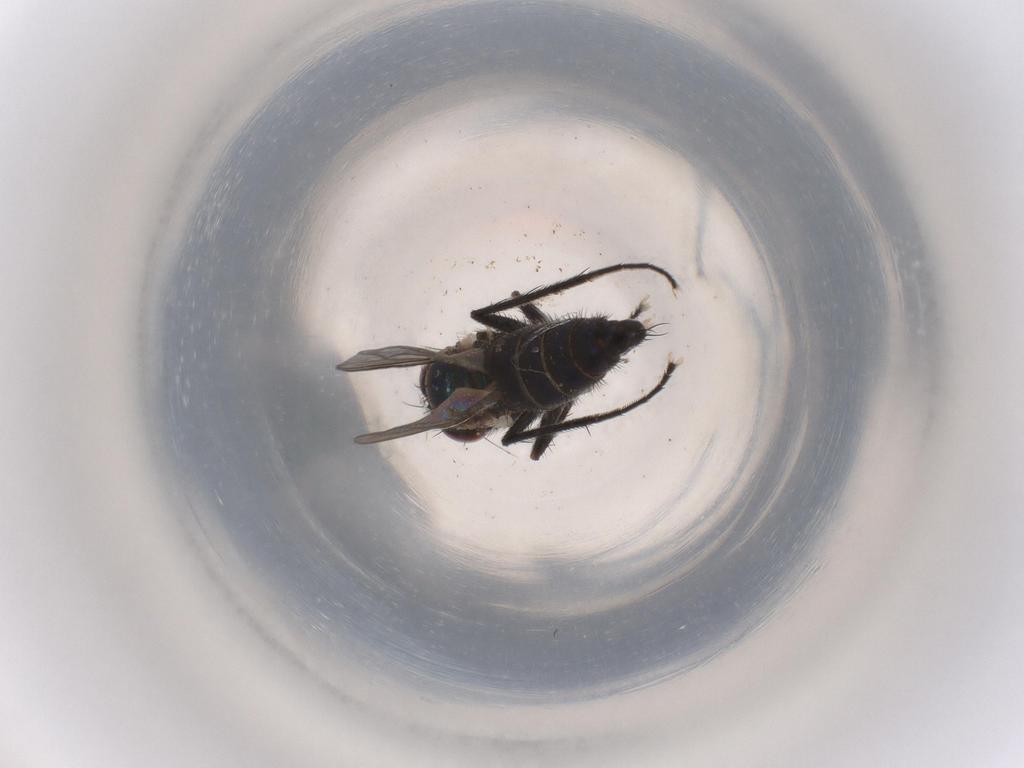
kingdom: Animalia
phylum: Arthropoda
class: Insecta
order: Diptera
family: Dolichopodidae
